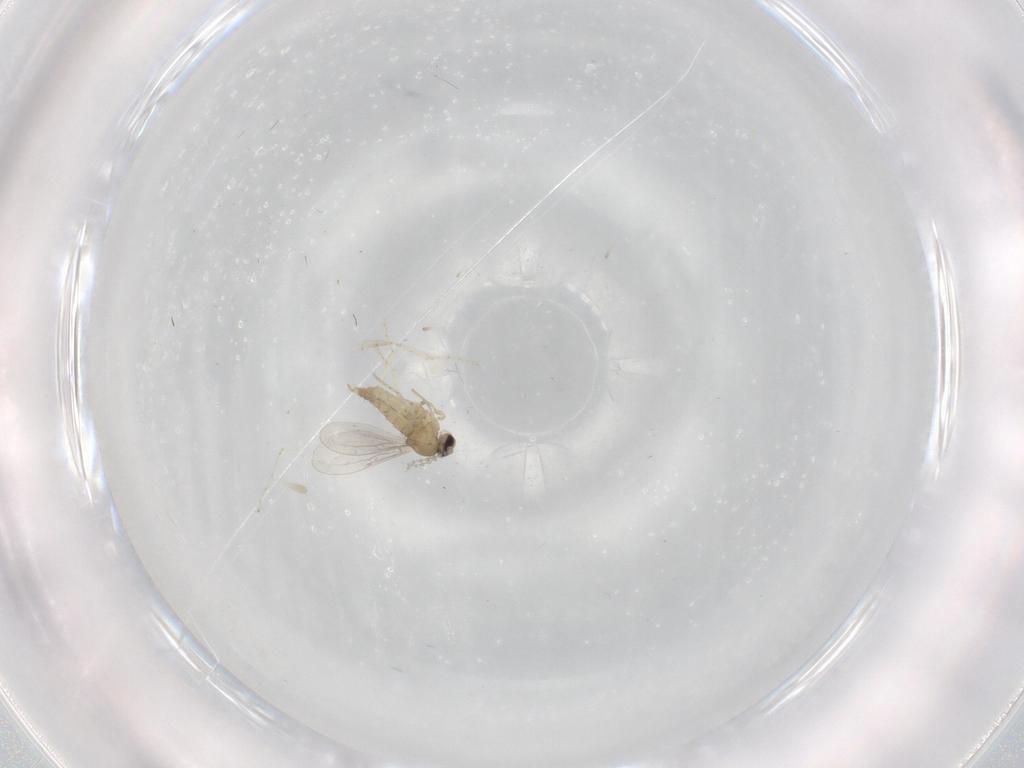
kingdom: Animalia
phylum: Arthropoda
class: Insecta
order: Diptera
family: Cecidomyiidae
